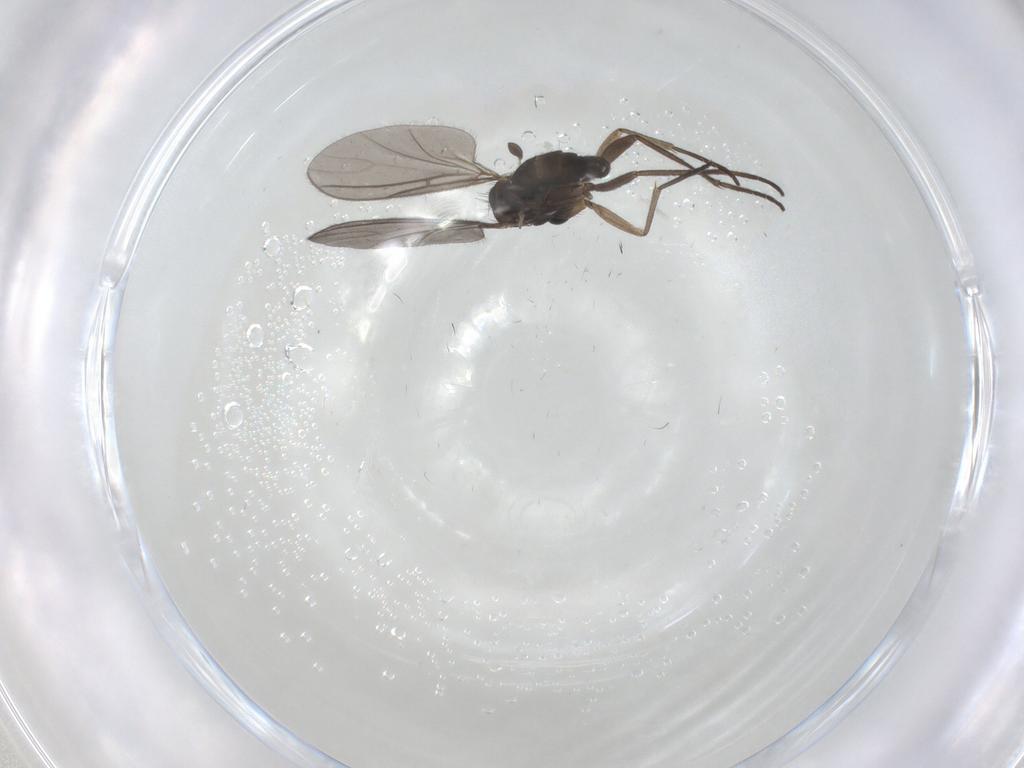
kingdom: Animalia
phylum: Arthropoda
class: Insecta
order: Diptera
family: Sciaridae
